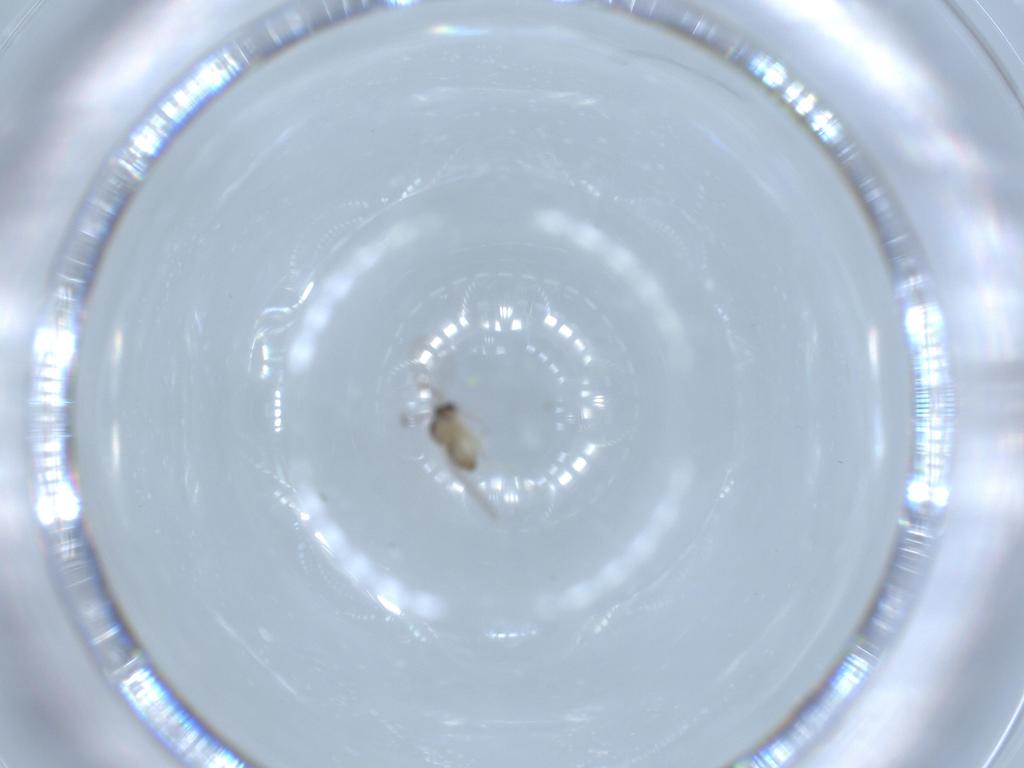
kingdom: Animalia
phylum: Arthropoda
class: Insecta
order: Diptera
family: Cecidomyiidae
